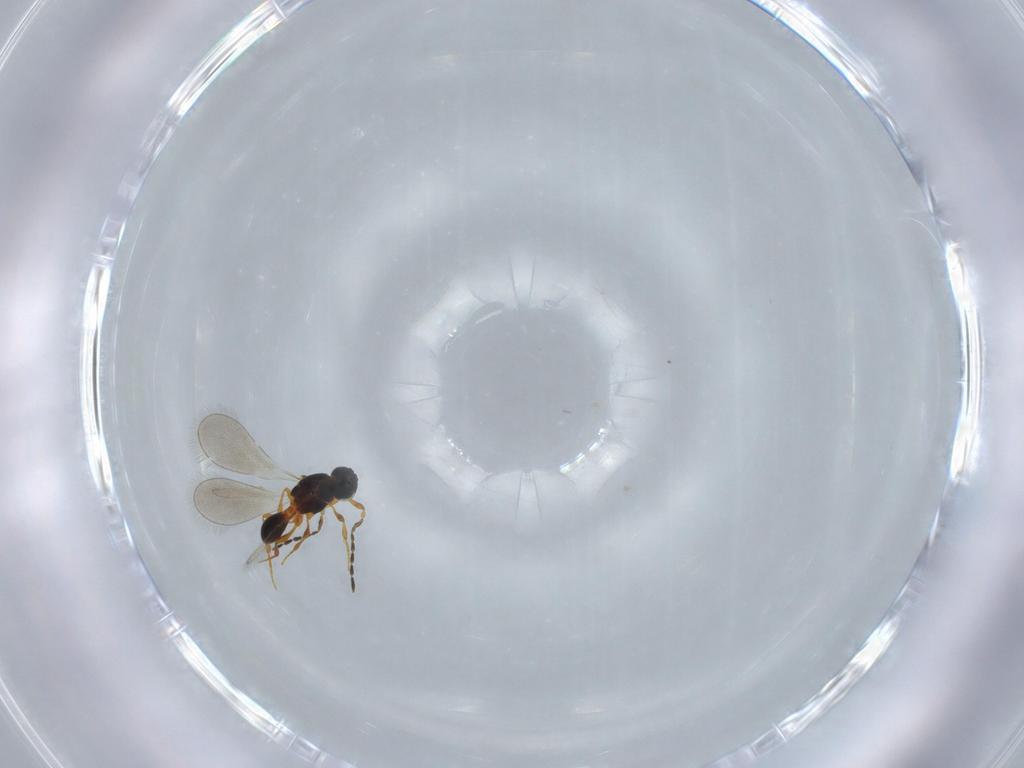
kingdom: Animalia
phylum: Arthropoda
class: Insecta
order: Hymenoptera
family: Platygastridae
